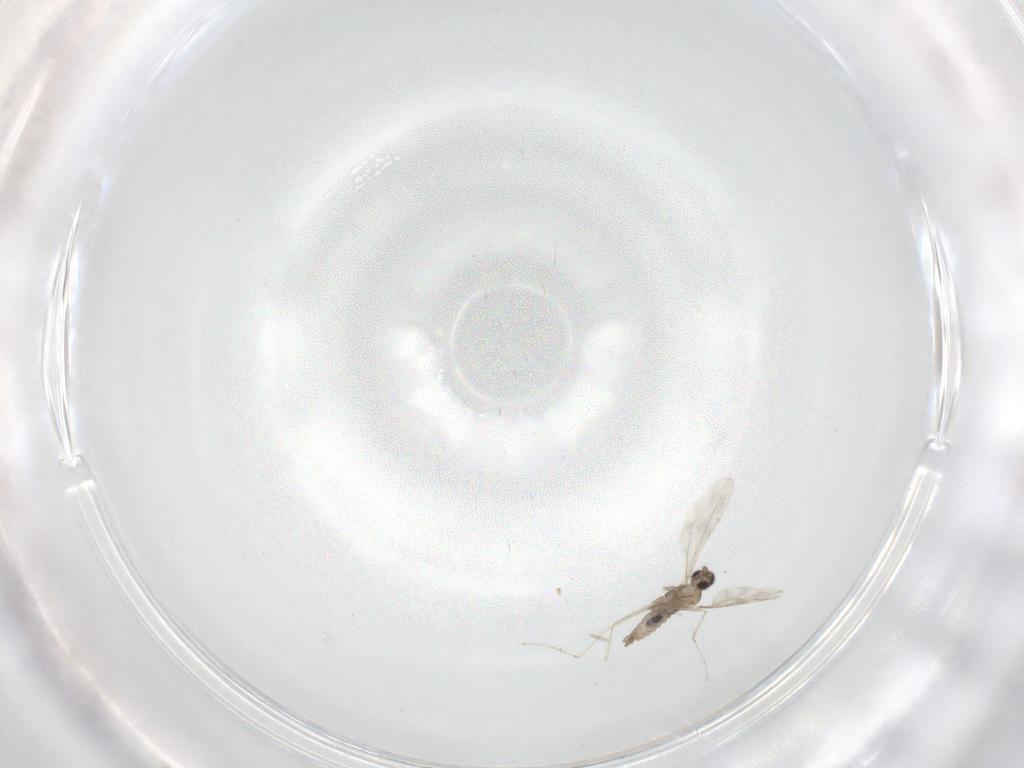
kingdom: Animalia
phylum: Arthropoda
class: Insecta
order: Diptera
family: Cecidomyiidae
